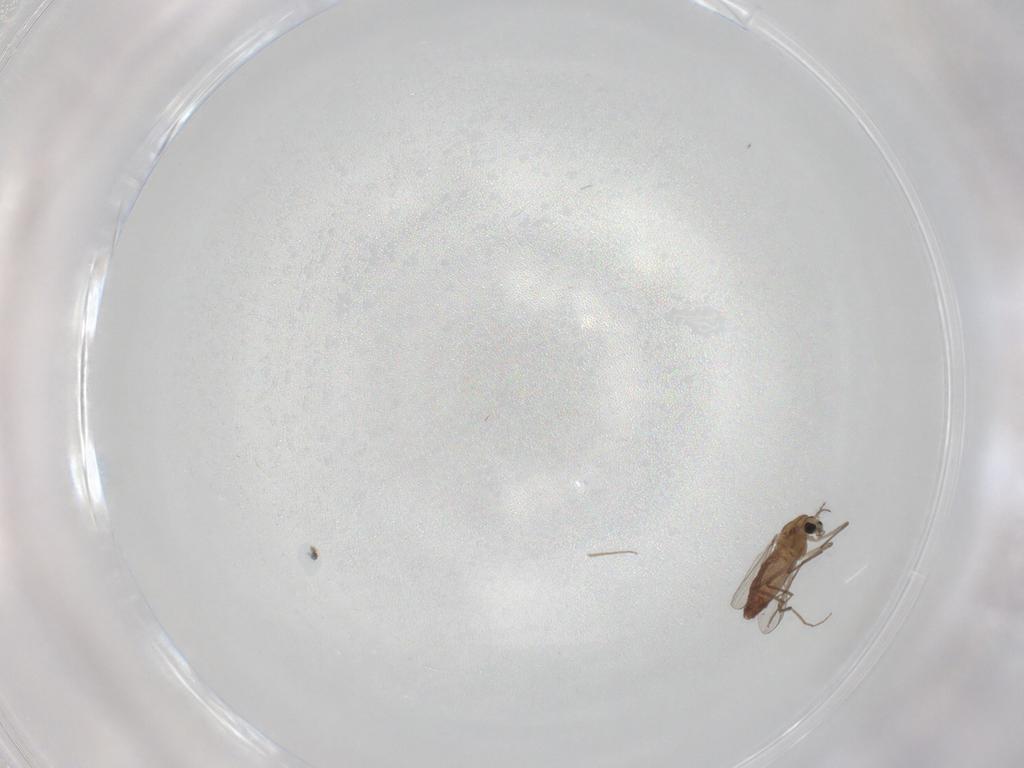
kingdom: Animalia
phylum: Arthropoda
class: Insecta
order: Diptera
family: Chironomidae
